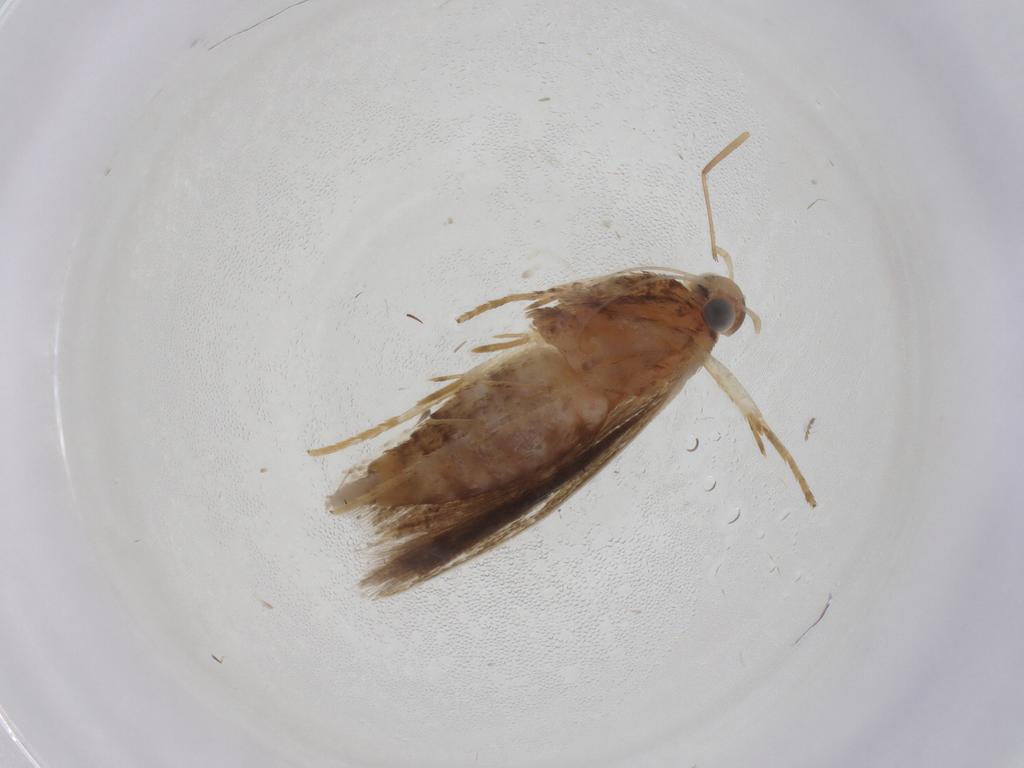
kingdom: Animalia
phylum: Arthropoda
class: Insecta
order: Lepidoptera
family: Gelechiidae
